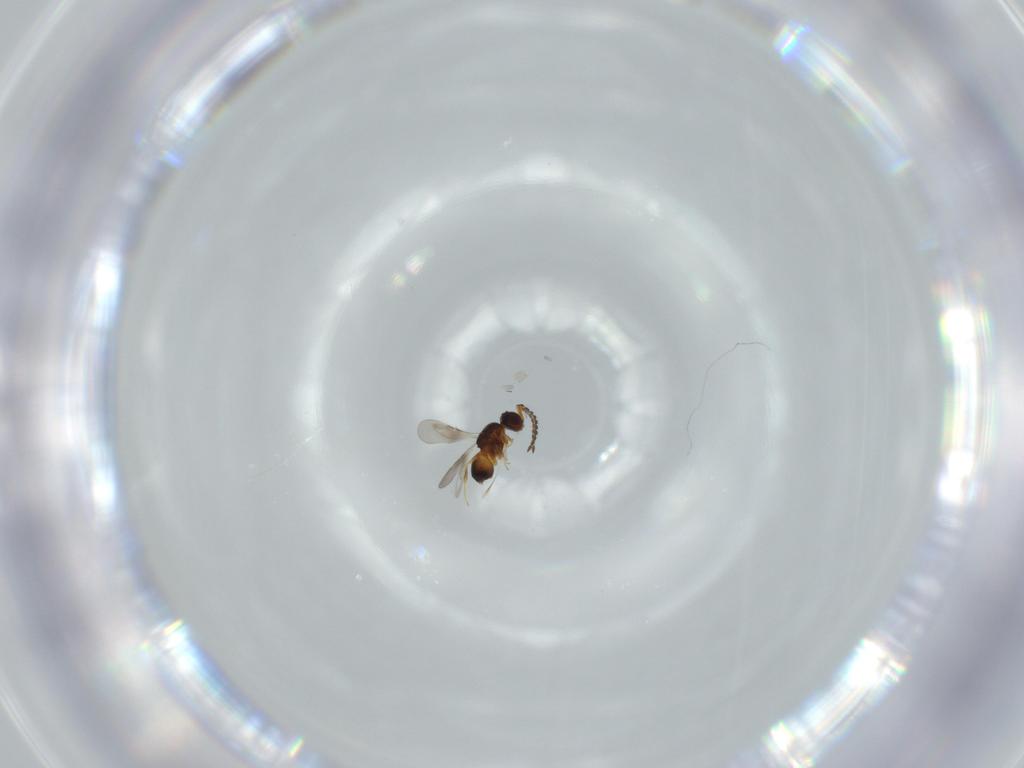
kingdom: Animalia
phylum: Arthropoda
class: Insecta
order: Hymenoptera
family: Ceraphronidae
